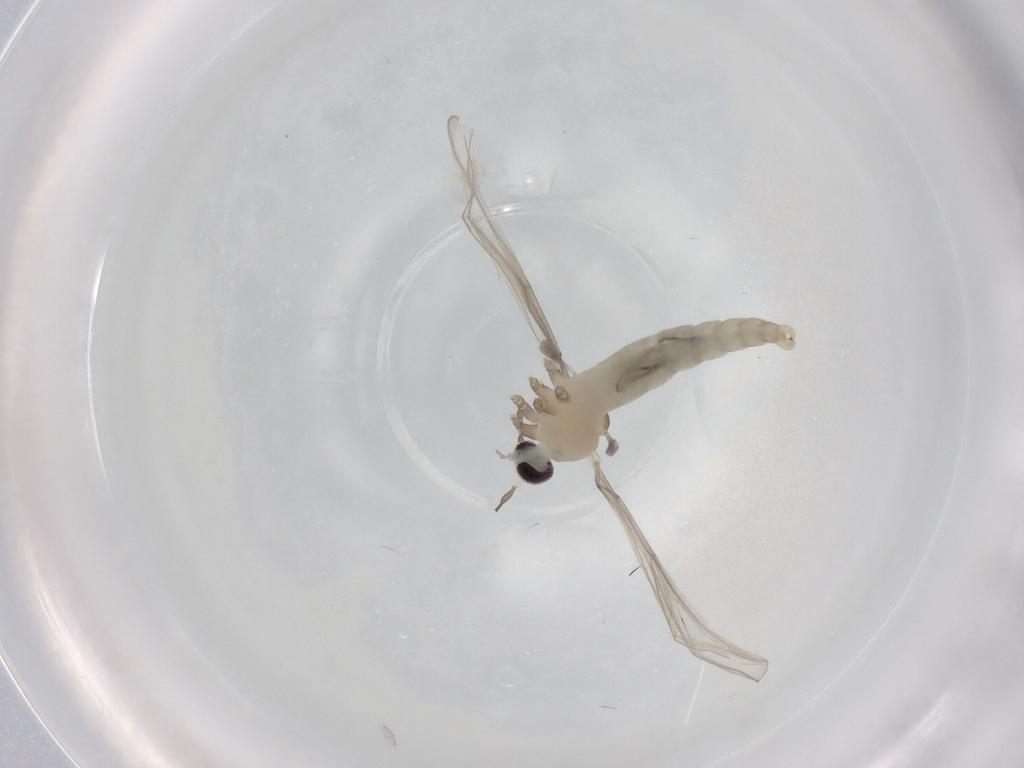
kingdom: Animalia
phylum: Arthropoda
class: Insecta
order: Diptera
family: Cecidomyiidae
